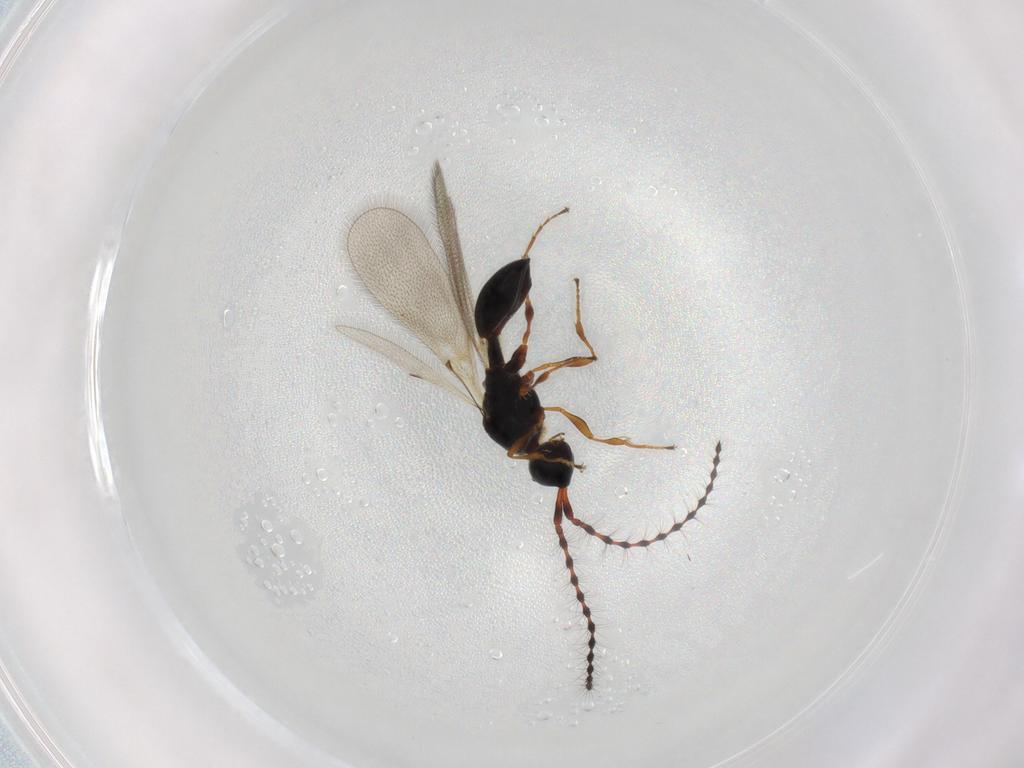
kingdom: Animalia
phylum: Arthropoda
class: Insecta
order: Hymenoptera
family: Diapriidae
